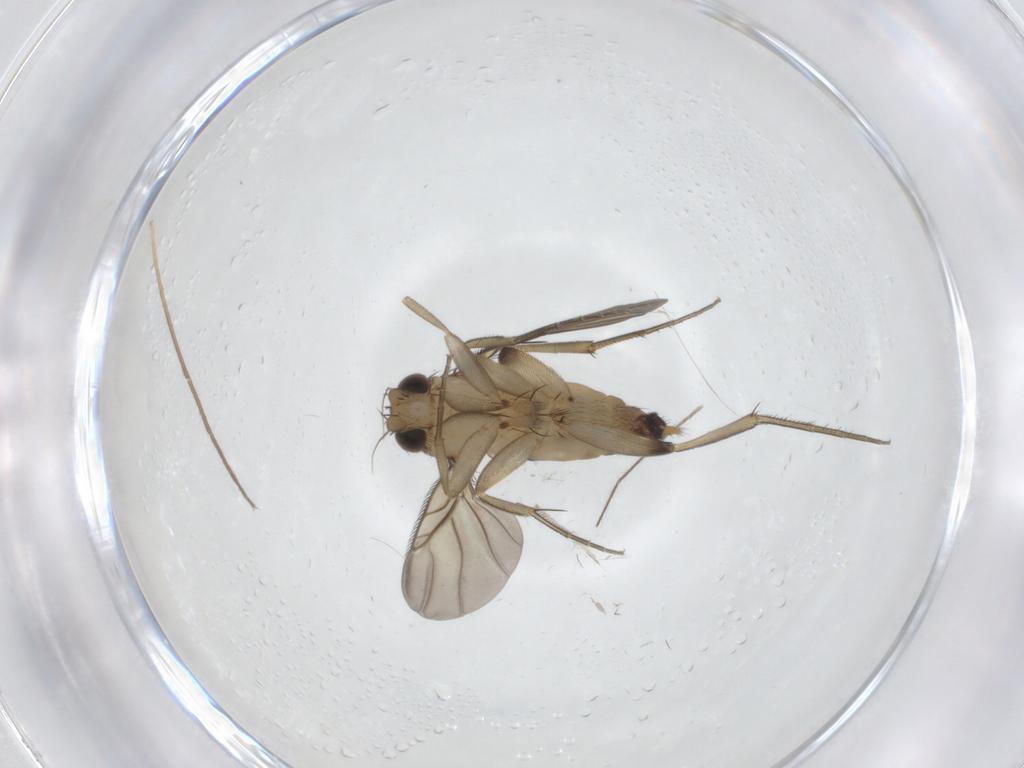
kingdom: Animalia
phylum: Arthropoda
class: Insecta
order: Diptera
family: Phoridae
